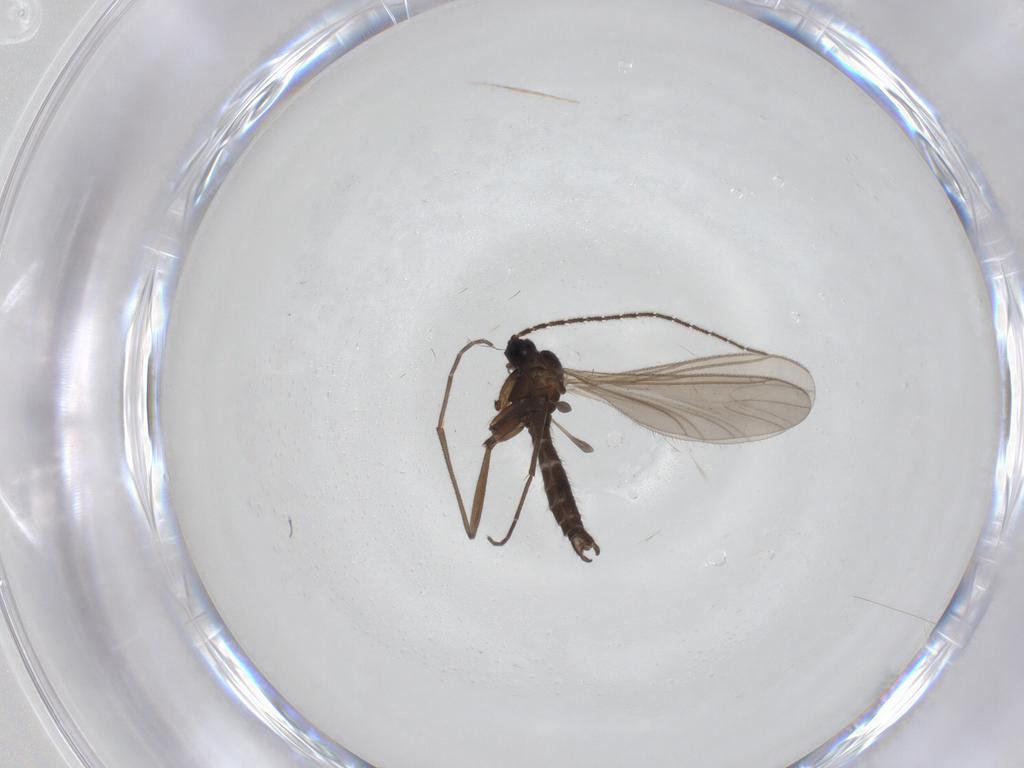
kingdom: Animalia
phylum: Arthropoda
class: Insecta
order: Diptera
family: Sciaridae
